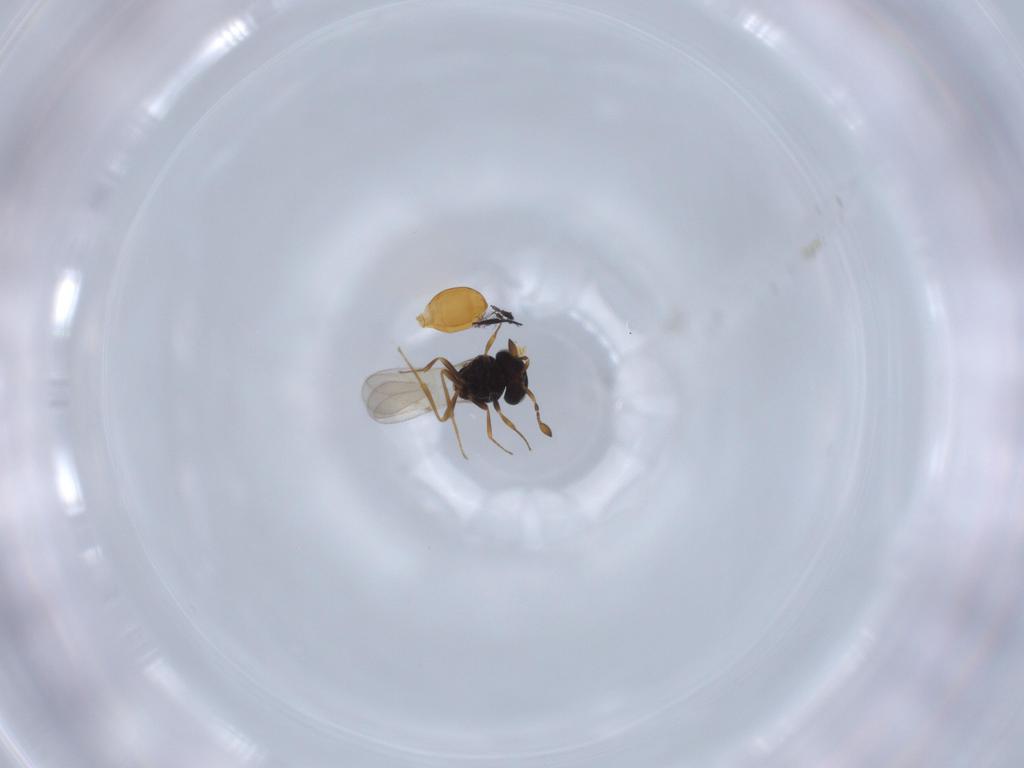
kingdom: Animalia
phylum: Arthropoda
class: Insecta
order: Hymenoptera
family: Scelionidae
